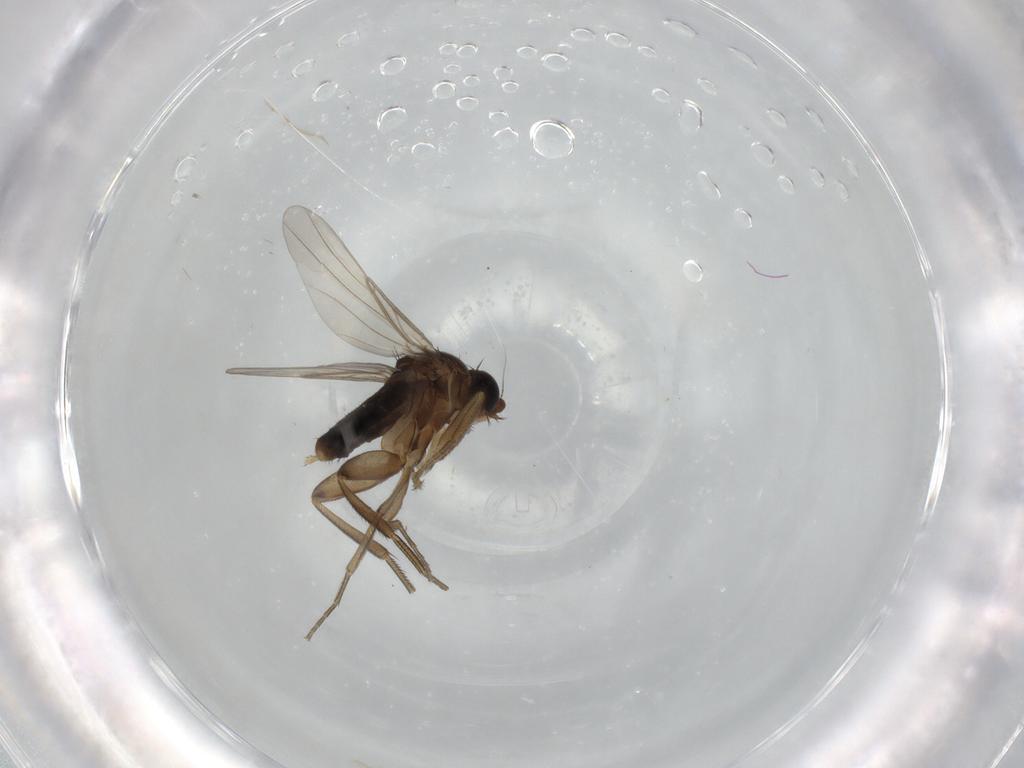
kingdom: Animalia
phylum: Arthropoda
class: Insecta
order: Diptera
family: Phoridae
